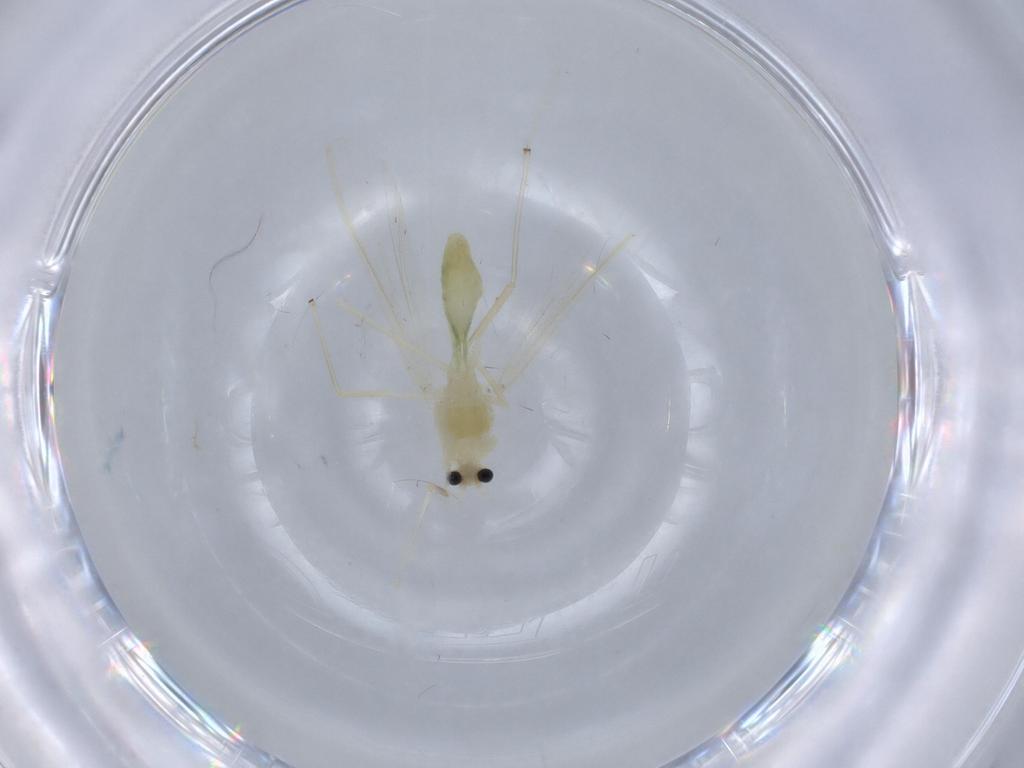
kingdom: Animalia
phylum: Arthropoda
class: Insecta
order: Diptera
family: Chironomidae
